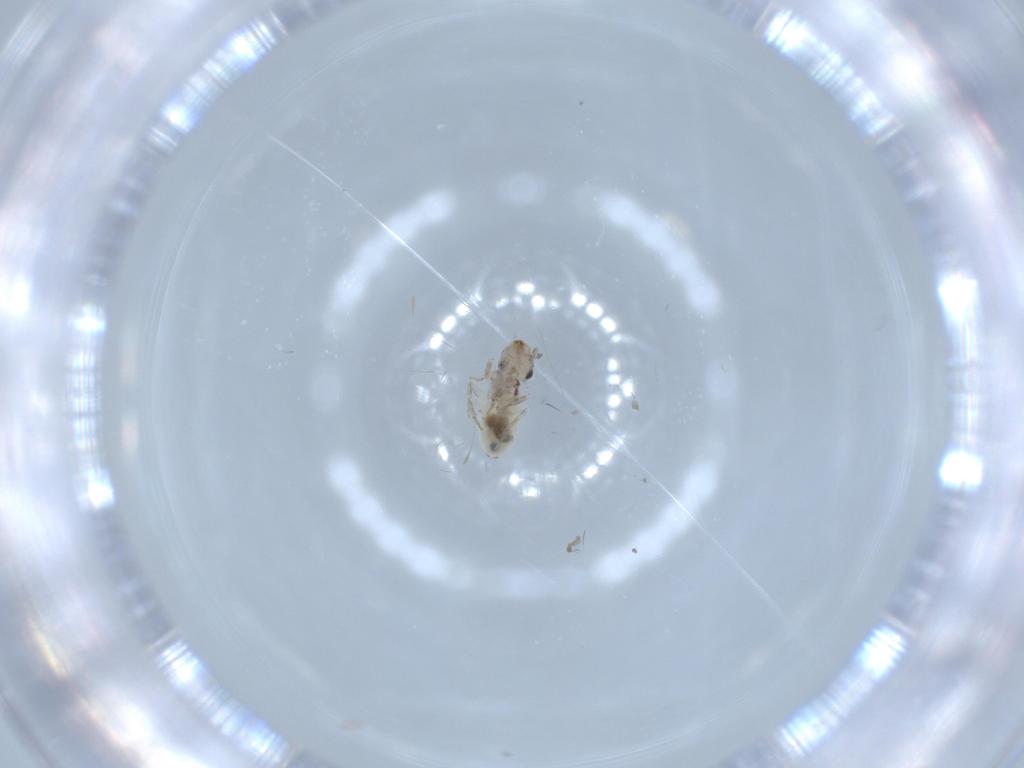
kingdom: Animalia
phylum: Arthropoda
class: Insecta
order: Psocodea
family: Lepidopsocidae
